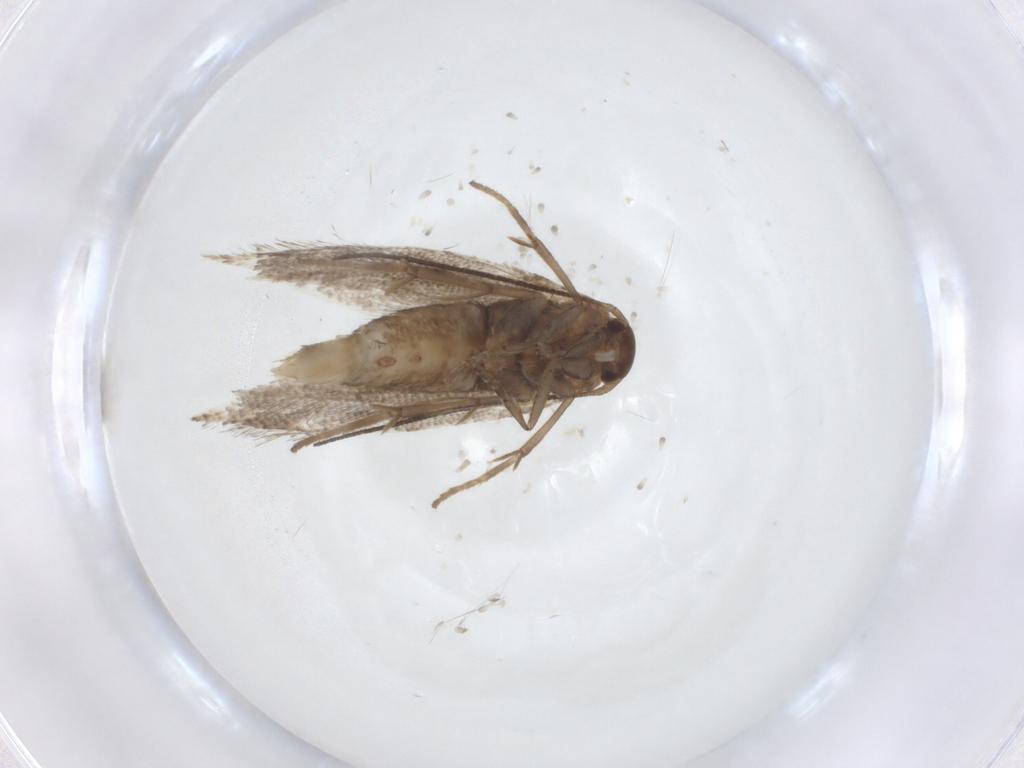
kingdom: Animalia
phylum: Arthropoda
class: Insecta
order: Lepidoptera
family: Elachistidae
